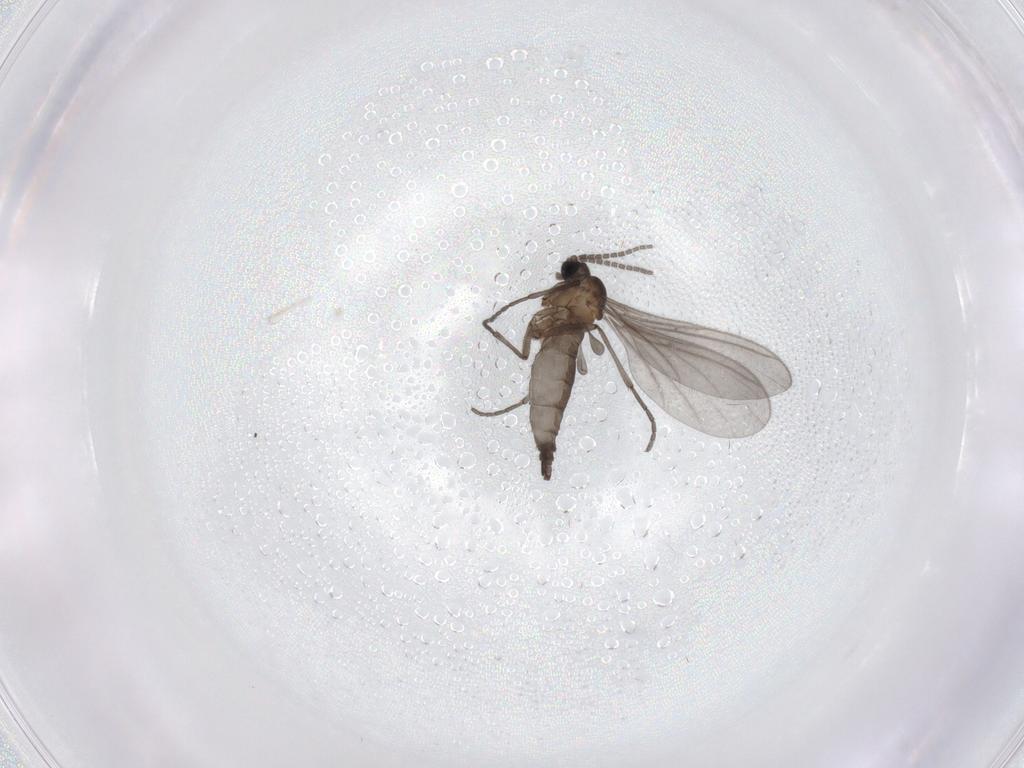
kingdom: Animalia
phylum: Arthropoda
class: Insecta
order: Diptera
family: Sciaridae
